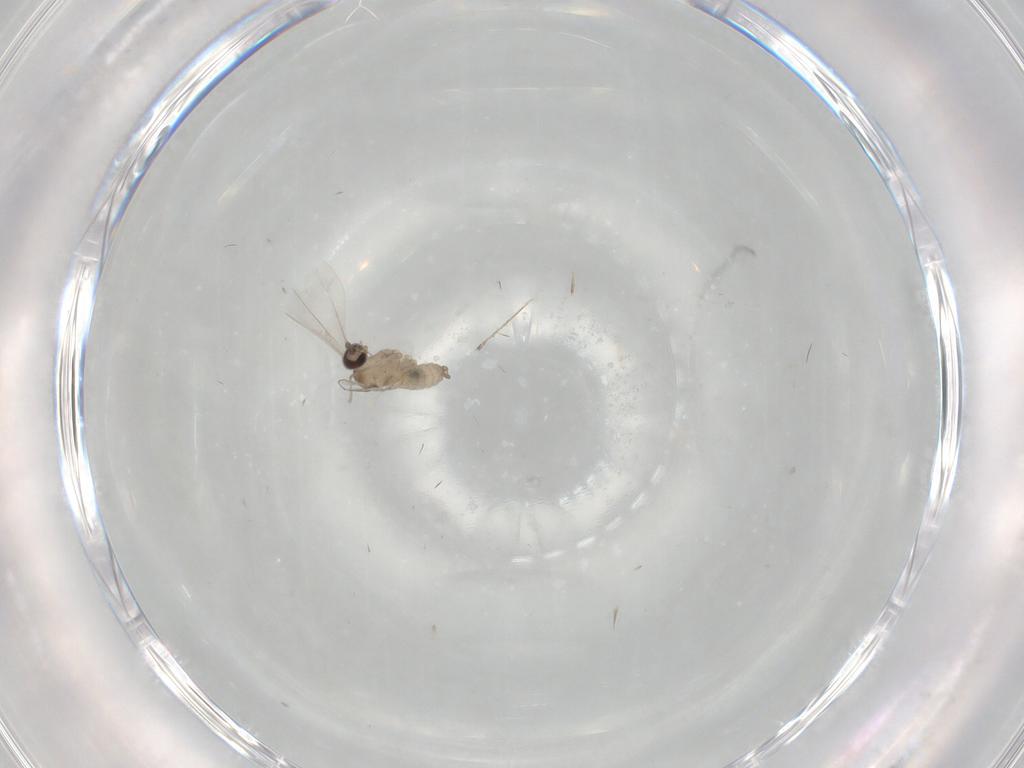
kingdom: Animalia
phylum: Arthropoda
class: Insecta
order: Diptera
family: Cecidomyiidae
